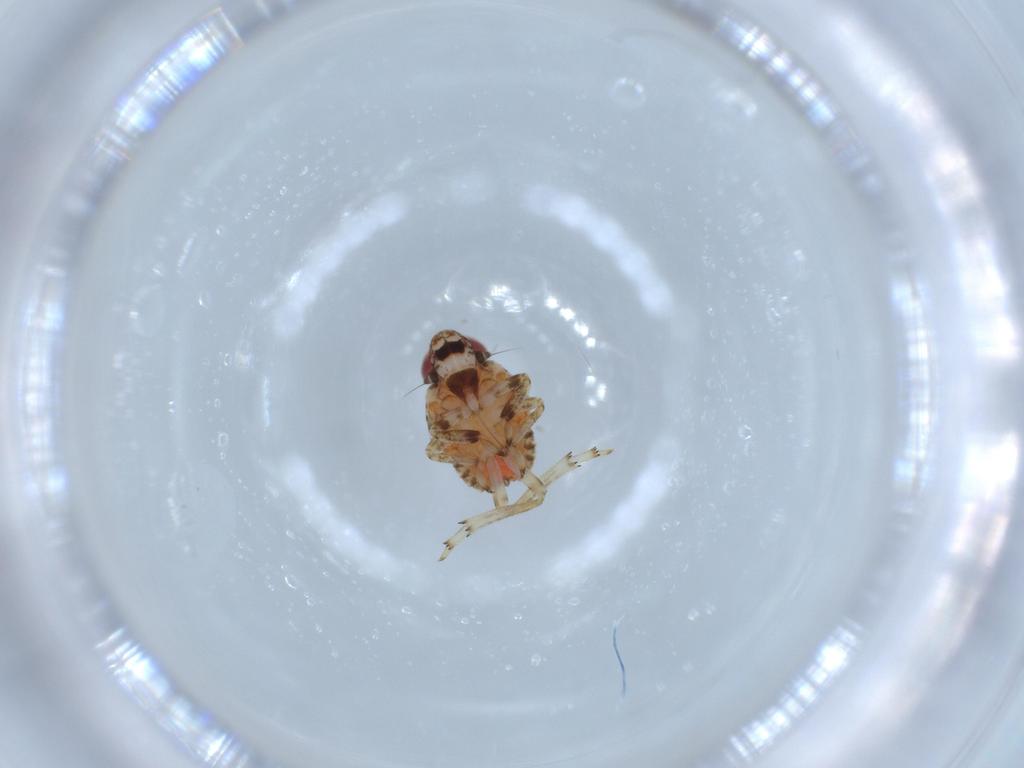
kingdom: Animalia
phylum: Arthropoda
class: Insecta
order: Hemiptera
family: Issidae
